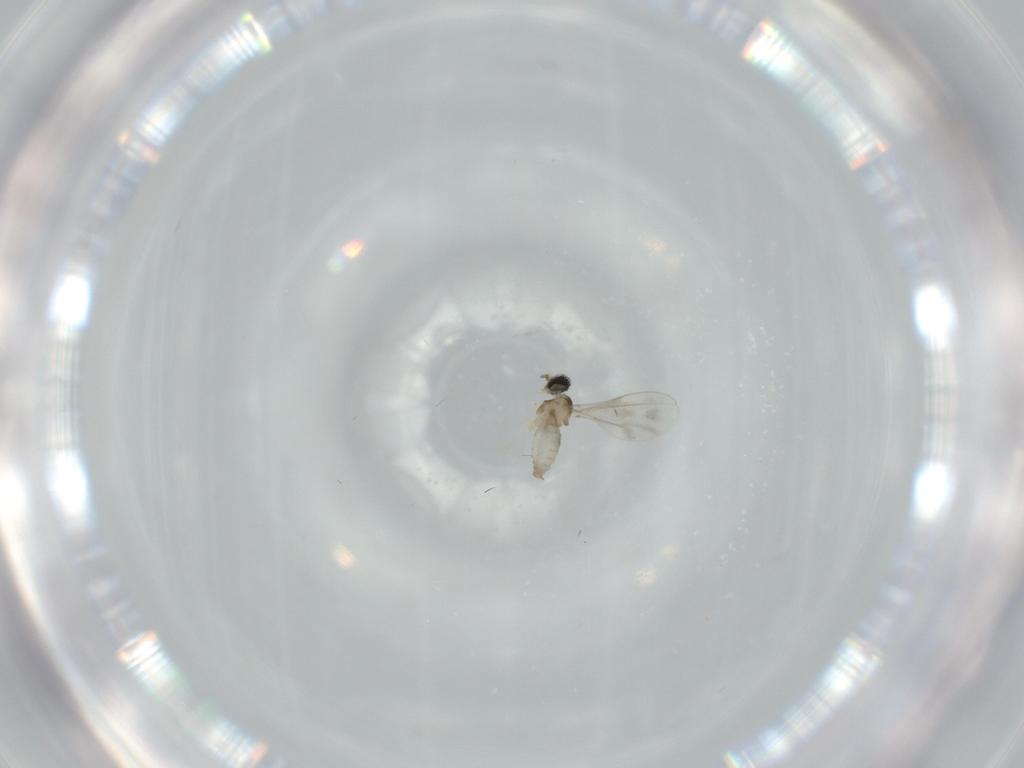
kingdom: Animalia
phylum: Arthropoda
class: Insecta
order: Diptera
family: Cecidomyiidae
